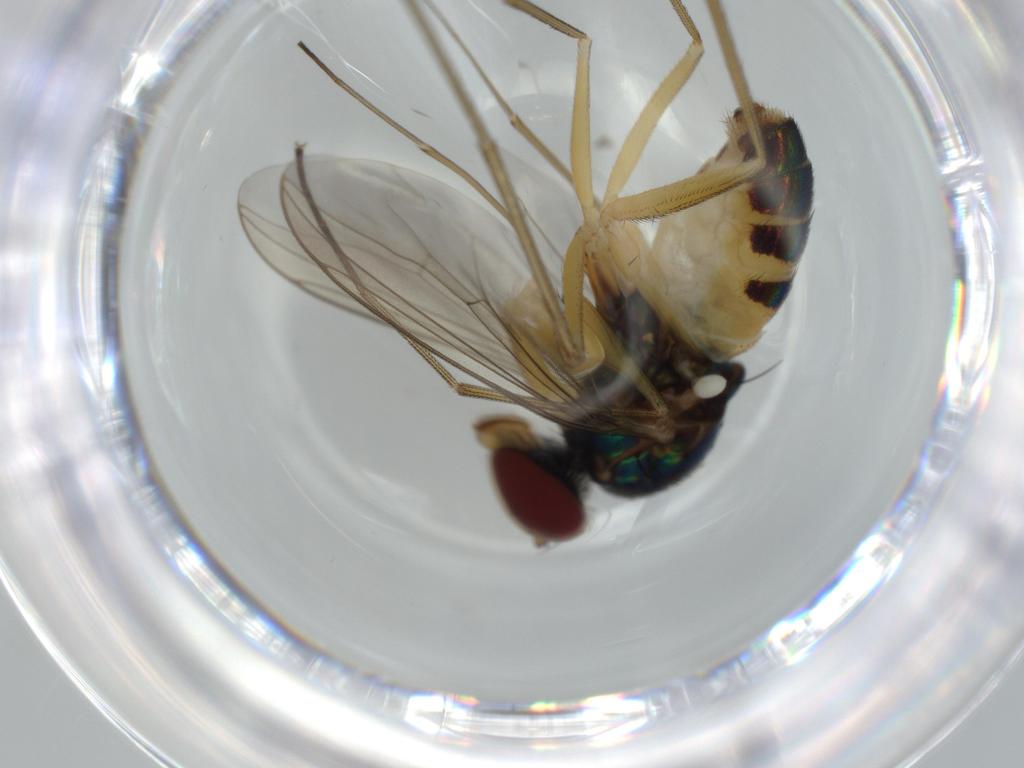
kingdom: Animalia
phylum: Arthropoda
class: Insecta
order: Diptera
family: Dolichopodidae
